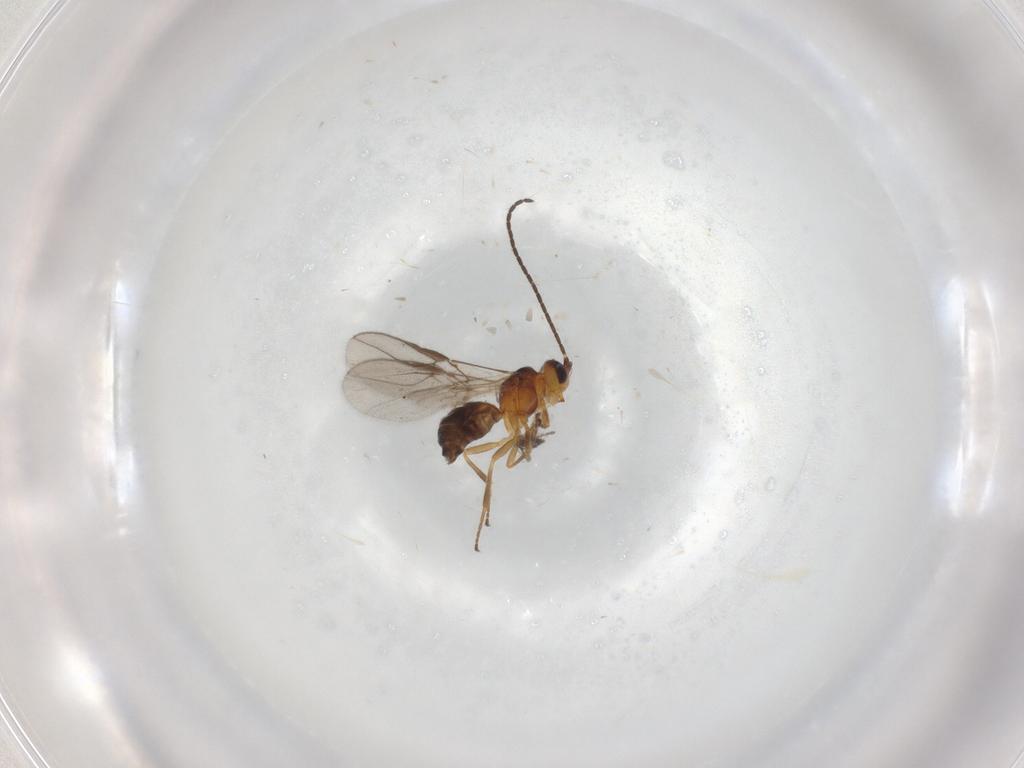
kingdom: Animalia
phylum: Arthropoda
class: Insecta
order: Hymenoptera
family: Braconidae
